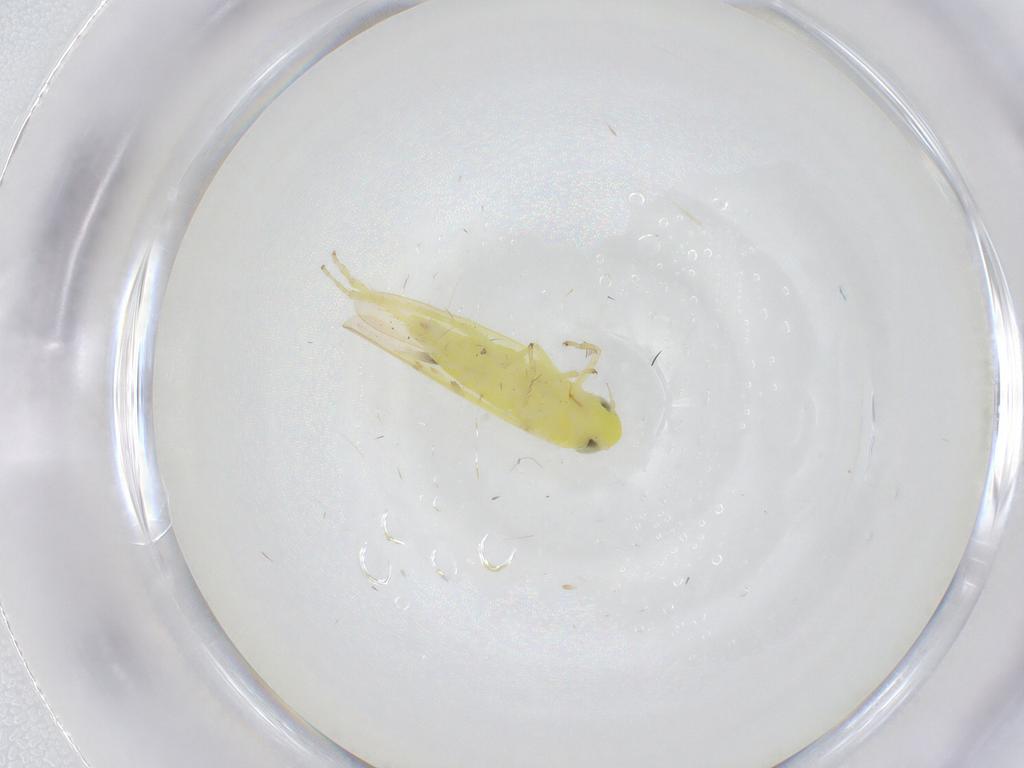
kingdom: Animalia
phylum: Arthropoda
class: Insecta
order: Hemiptera
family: Cicadellidae
